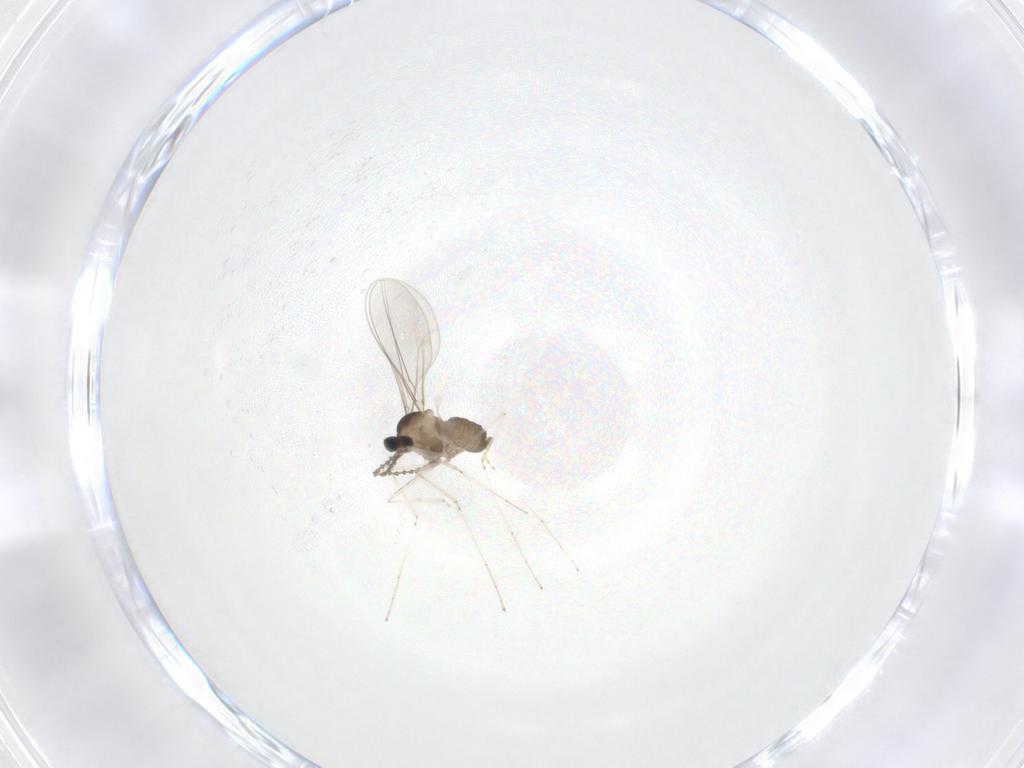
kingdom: Animalia
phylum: Arthropoda
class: Insecta
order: Diptera
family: Cecidomyiidae
